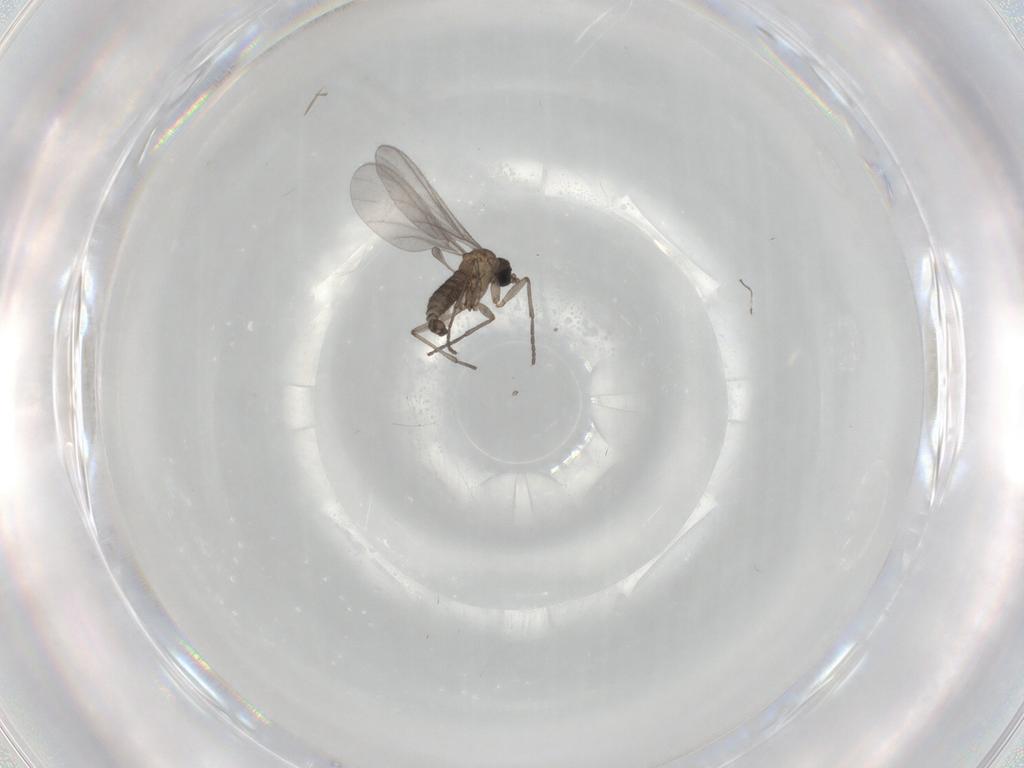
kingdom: Animalia
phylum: Arthropoda
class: Insecta
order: Diptera
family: Sciaridae
